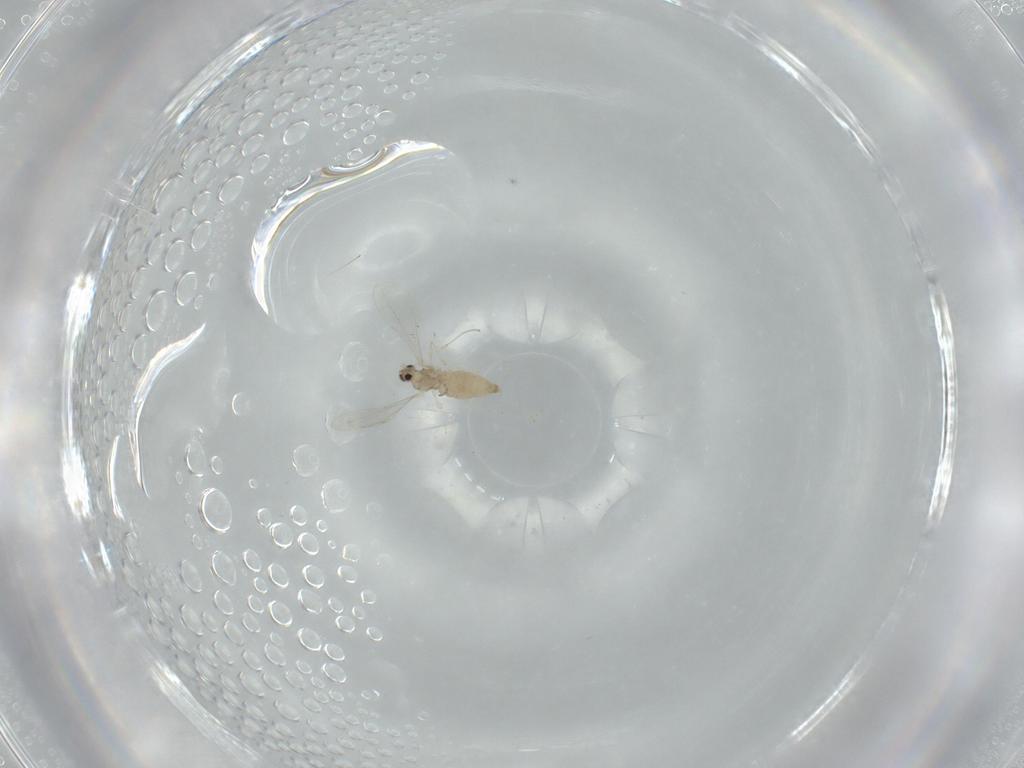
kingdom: Animalia
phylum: Arthropoda
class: Insecta
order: Diptera
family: Cecidomyiidae
